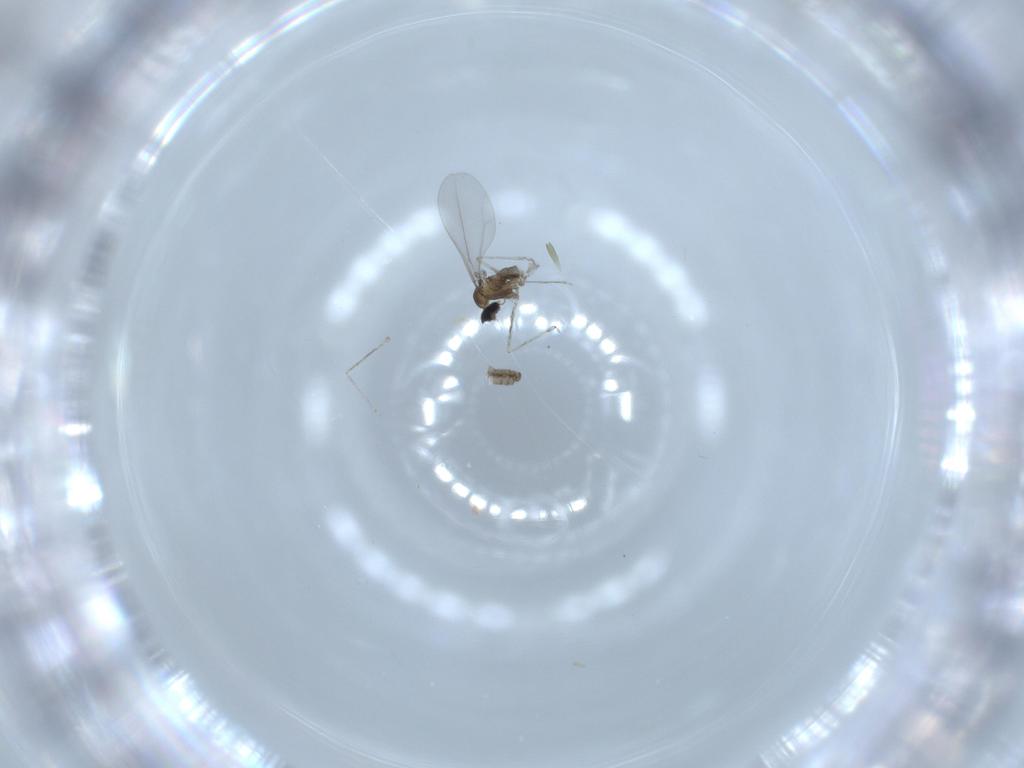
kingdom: Animalia
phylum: Arthropoda
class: Insecta
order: Diptera
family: Cecidomyiidae
